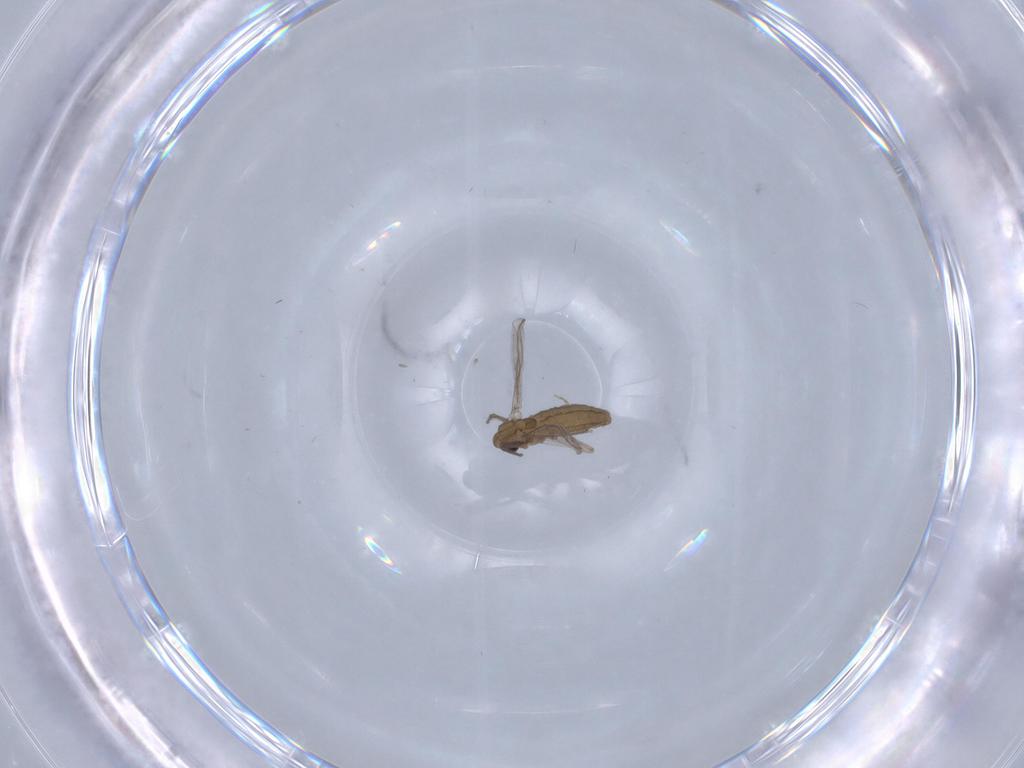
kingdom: Animalia
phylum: Arthropoda
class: Insecta
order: Diptera
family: Chironomidae
